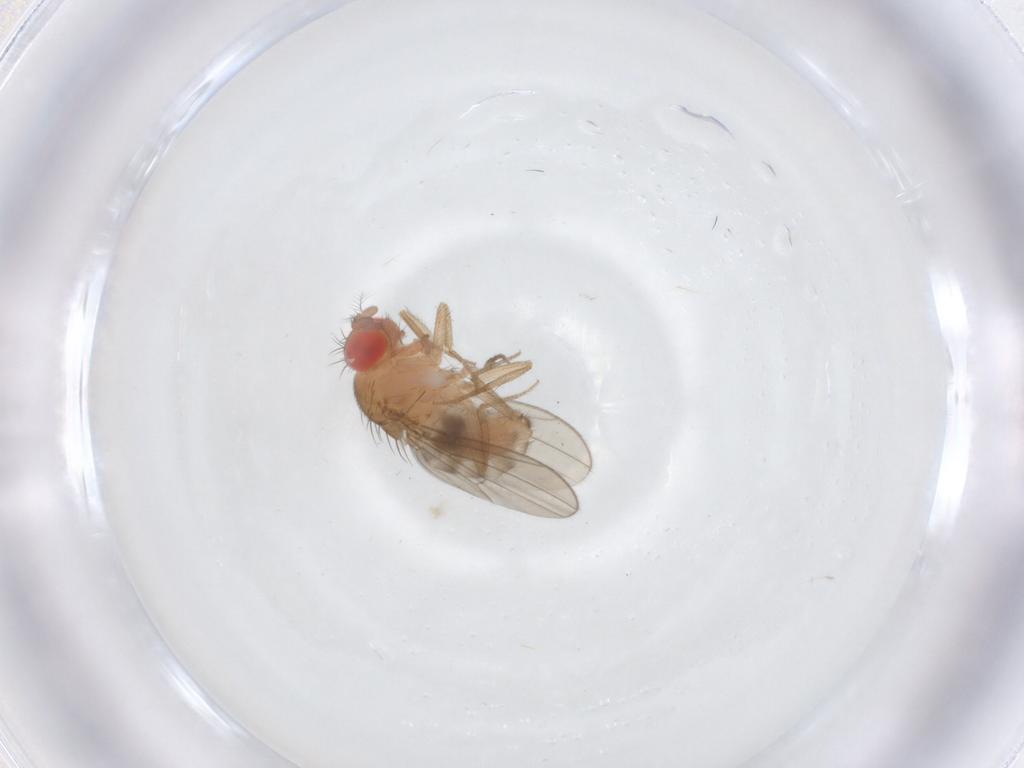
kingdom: Animalia
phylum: Arthropoda
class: Insecta
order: Diptera
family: Drosophilidae
